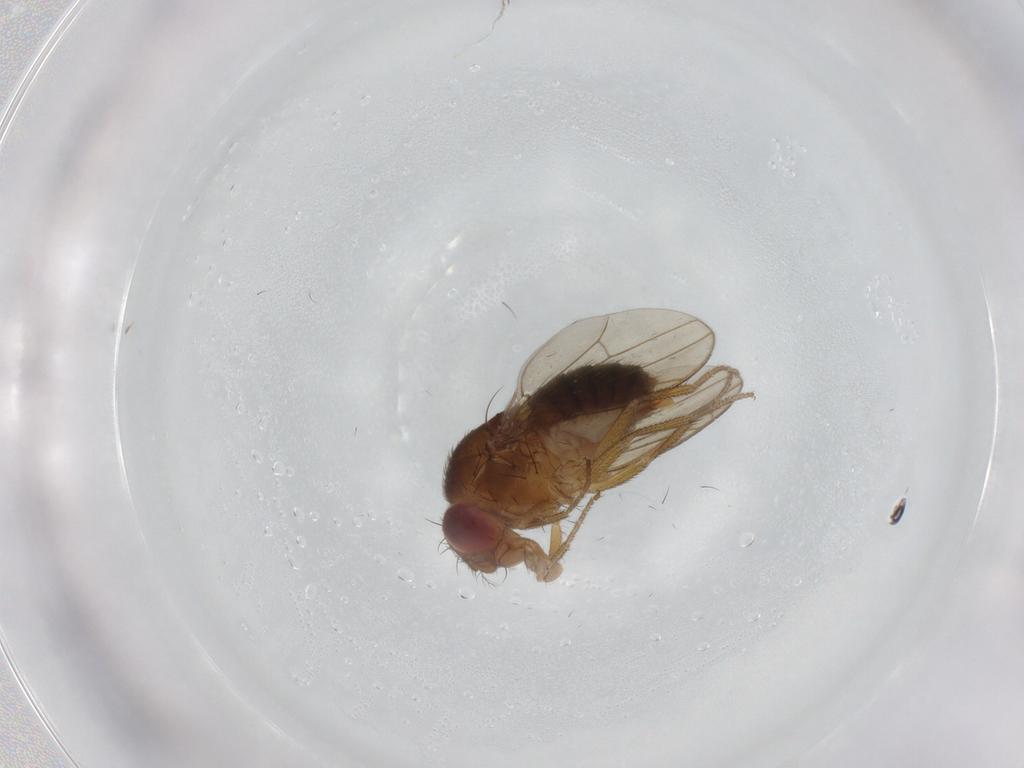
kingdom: Animalia
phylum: Arthropoda
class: Insecta
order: Diptera
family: Drosophilidae
